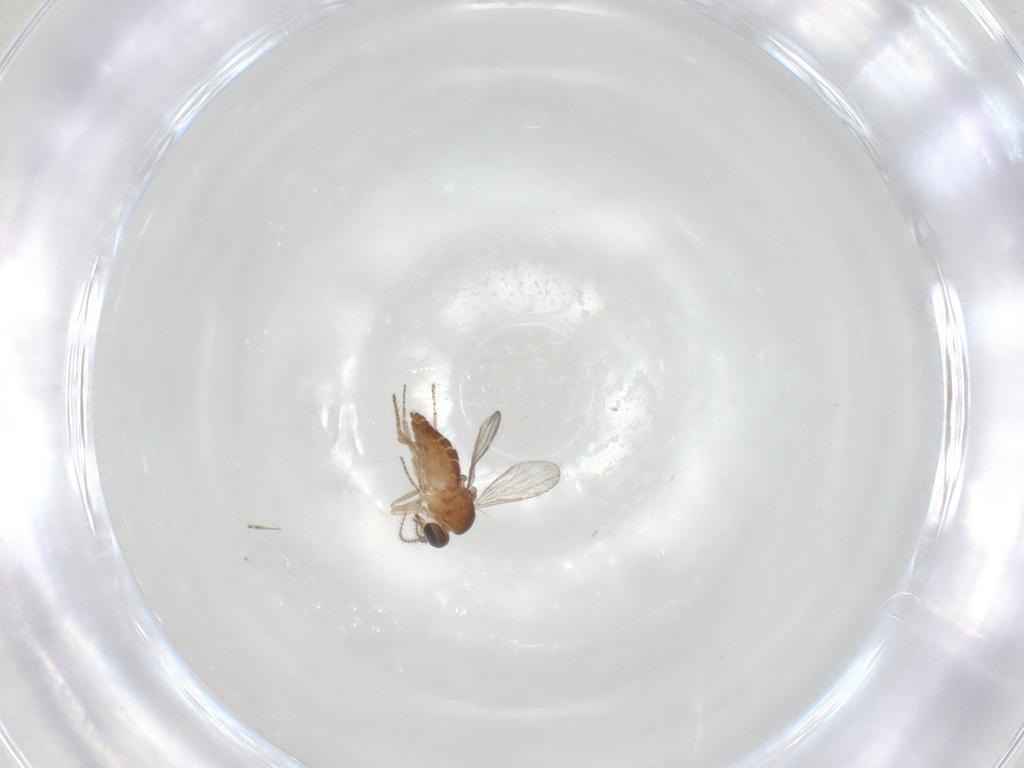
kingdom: Animalia
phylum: Arthropoda
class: Insecta
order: Diptera
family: Ceratopogonidae
